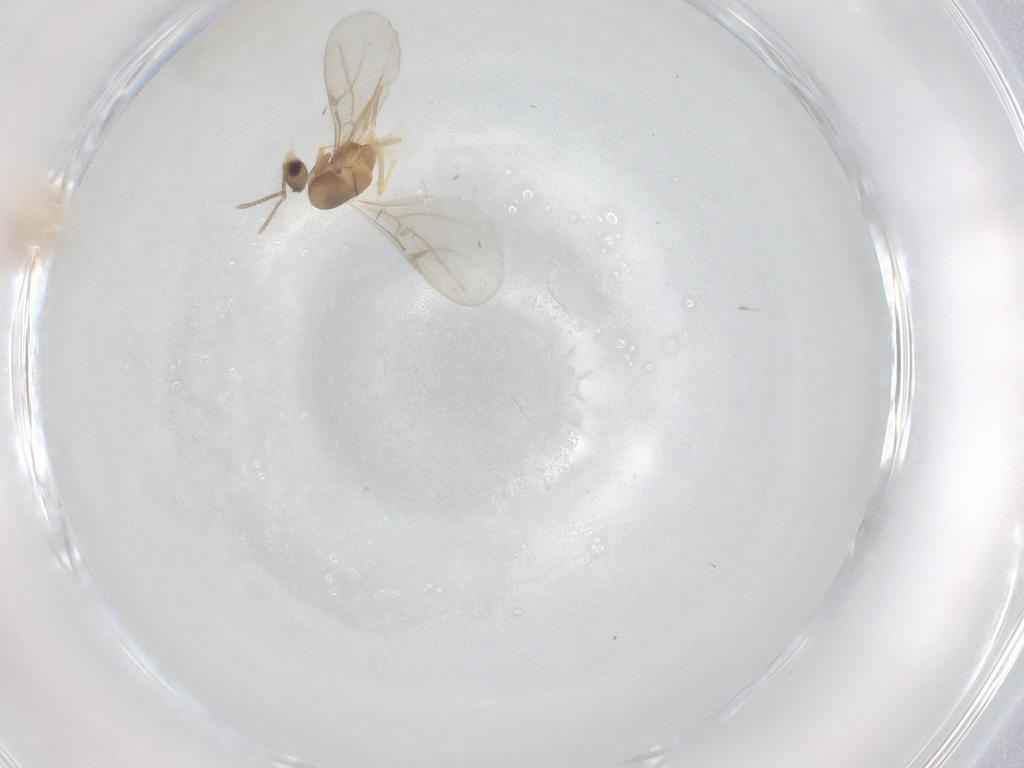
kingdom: Animalia
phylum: Arthropoda
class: Insecta
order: Hymenoptera
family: Formicidae
